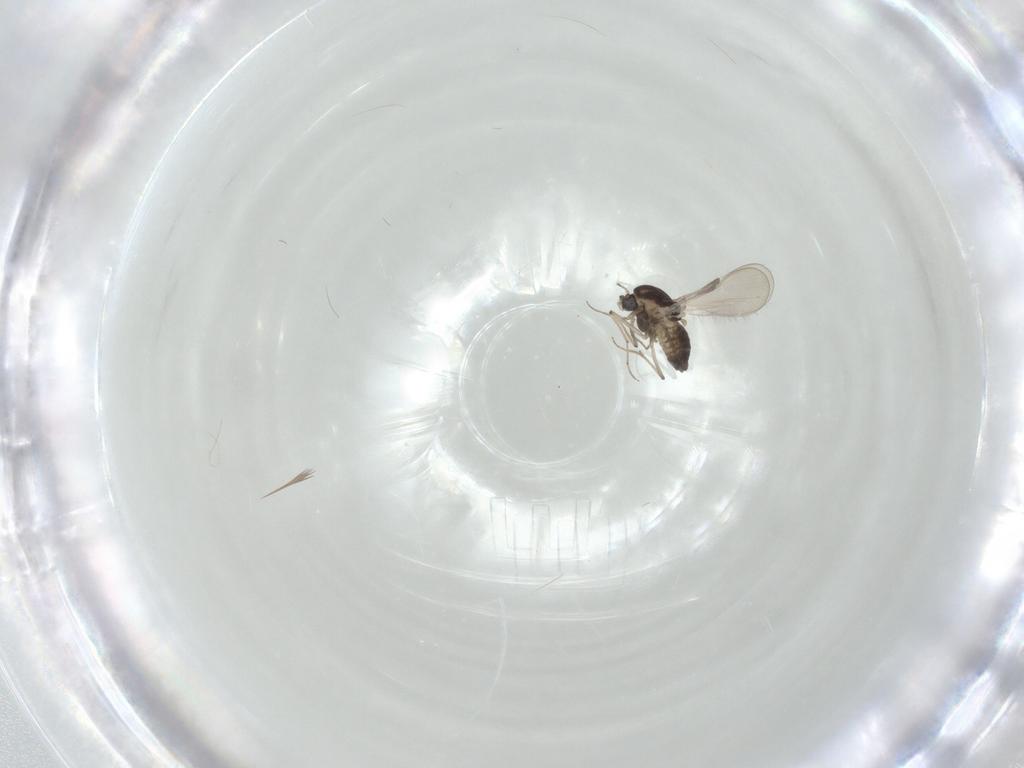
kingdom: Animalia
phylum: Arthropoda
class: Insecta
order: Diptera
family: Chironomidae
